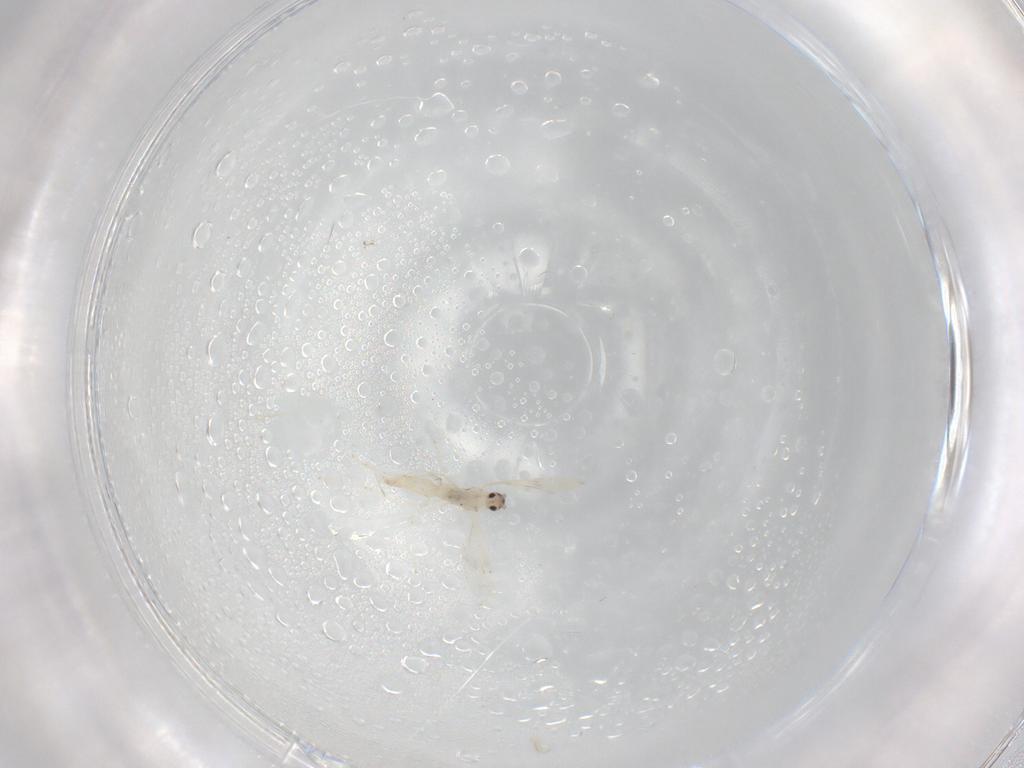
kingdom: Animalia
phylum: Arthropoda
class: Insecta
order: Diptera
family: Cecidomyiidae
